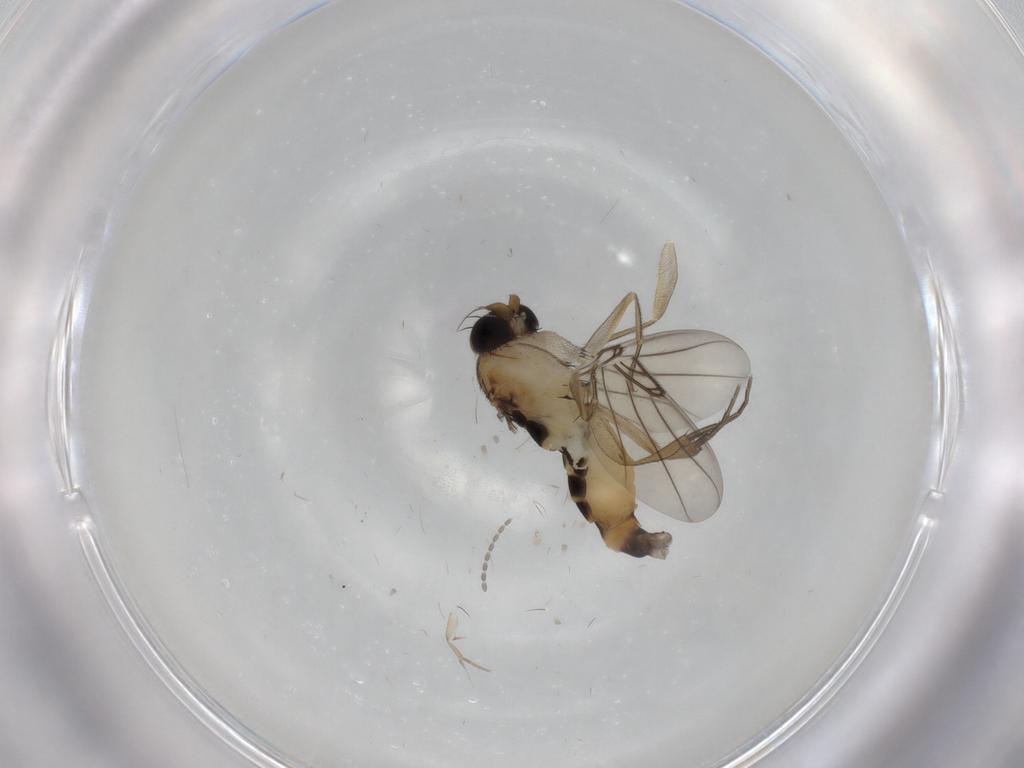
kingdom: Animalia
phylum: Arthropoda
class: Insecta
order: Diptera
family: Phoridae
